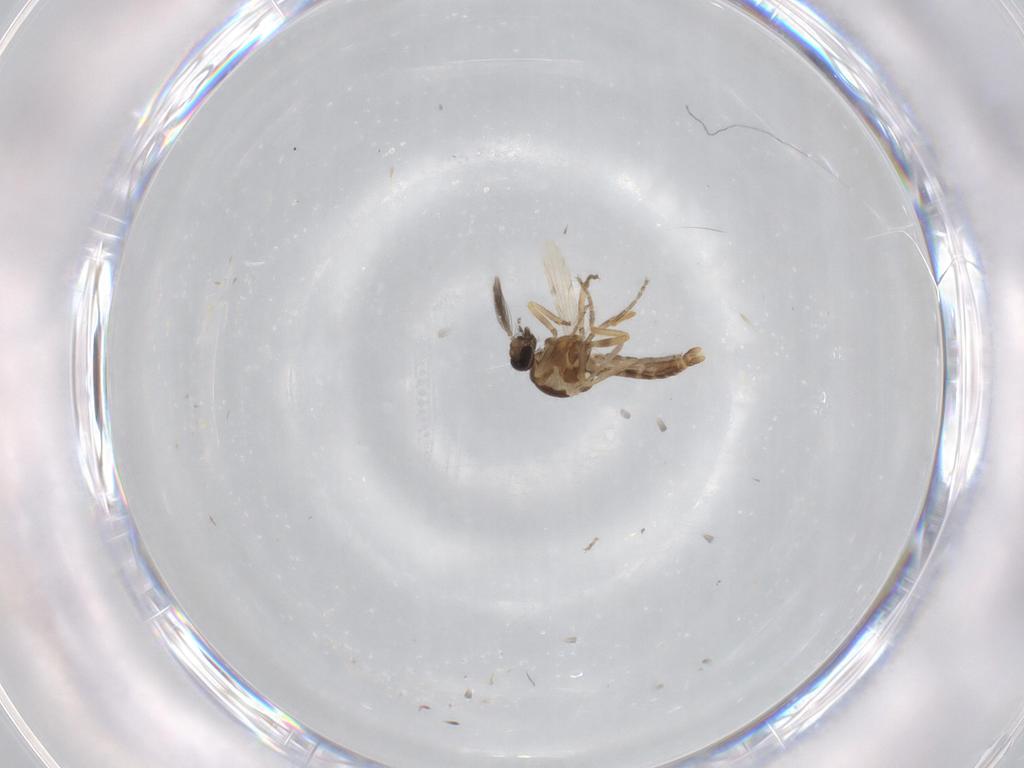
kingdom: Animalia
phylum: Arthropoda
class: Insecta
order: Diptera
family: Ceratopogonidae
